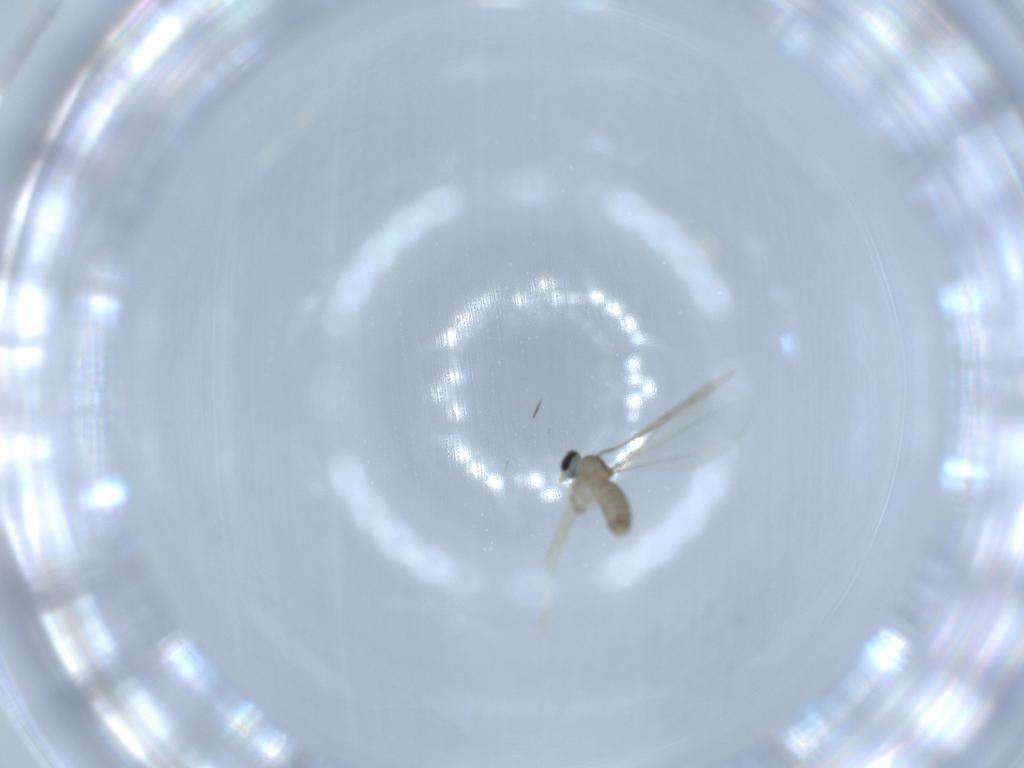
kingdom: Animalia
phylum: Arthropoda
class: Insecta
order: Diptera
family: Cecidomyiidae
